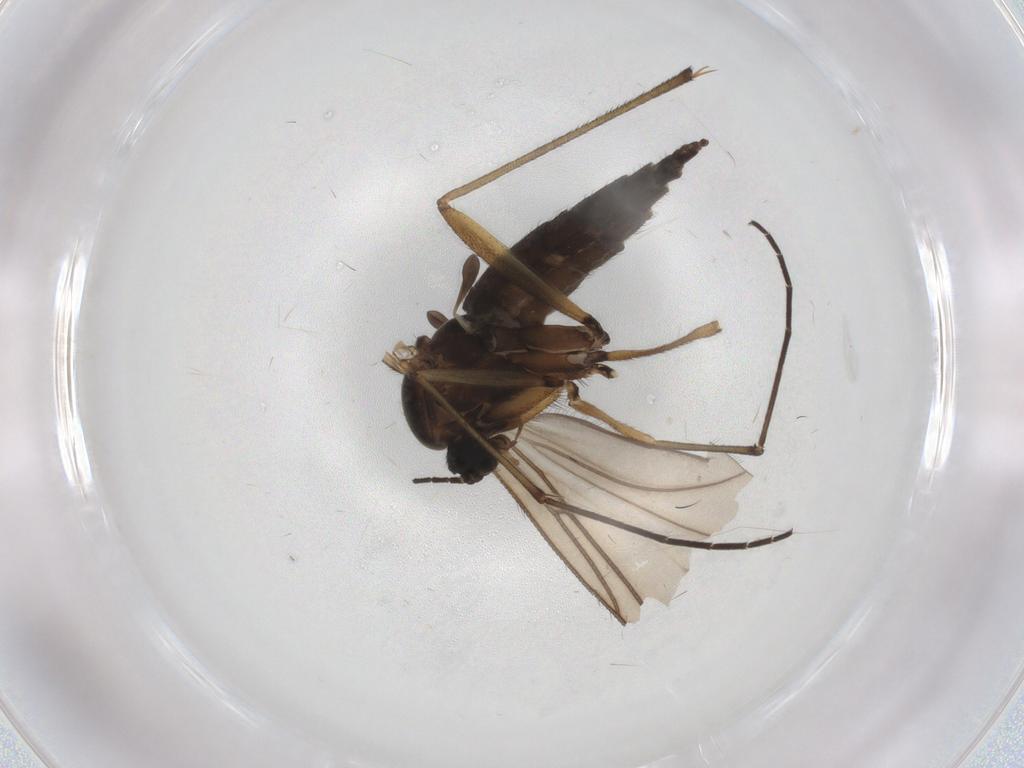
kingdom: Animalia
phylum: Arthropoda
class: Insecta
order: Diptera
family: Sciaridae
